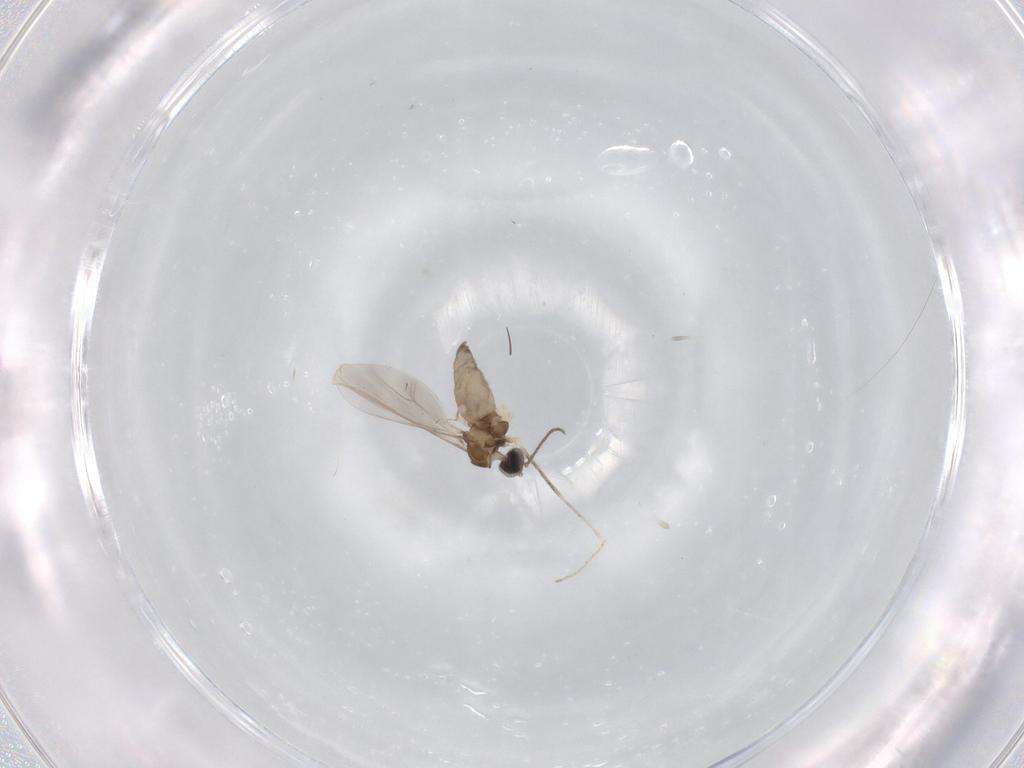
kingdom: Animalia
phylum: Arthropoda
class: Insecta
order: Diptera
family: Cecidomyiidae
